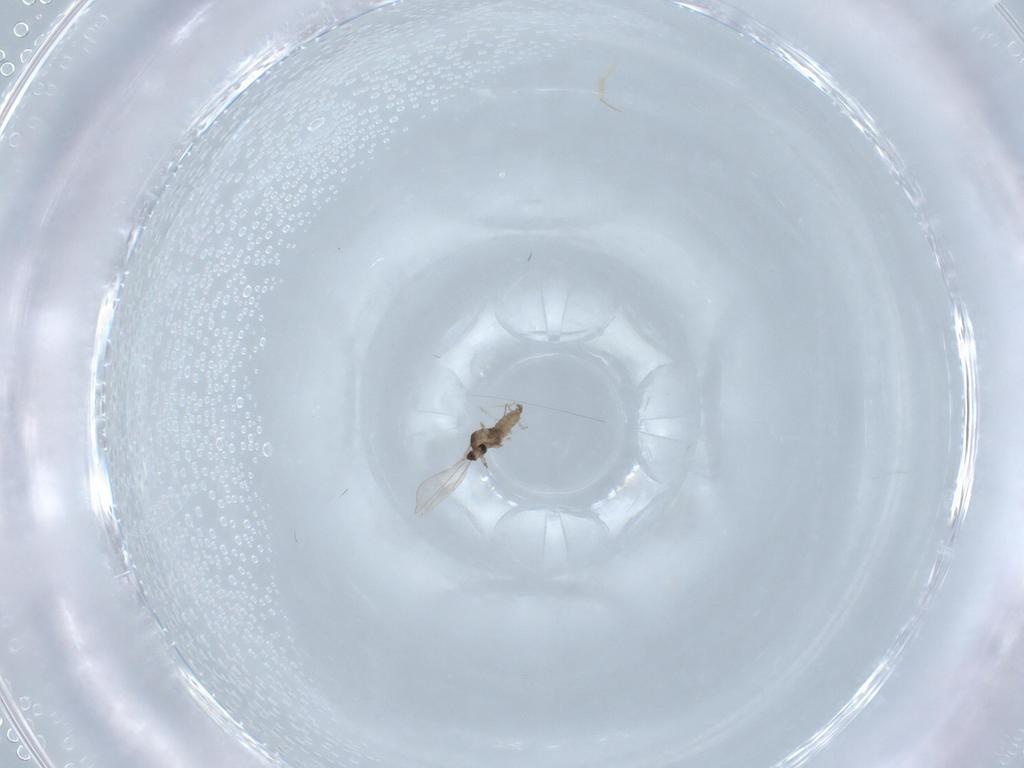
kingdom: Animalia
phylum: Arthropoda
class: Insecta
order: Diptera
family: Cecidomyiidae
